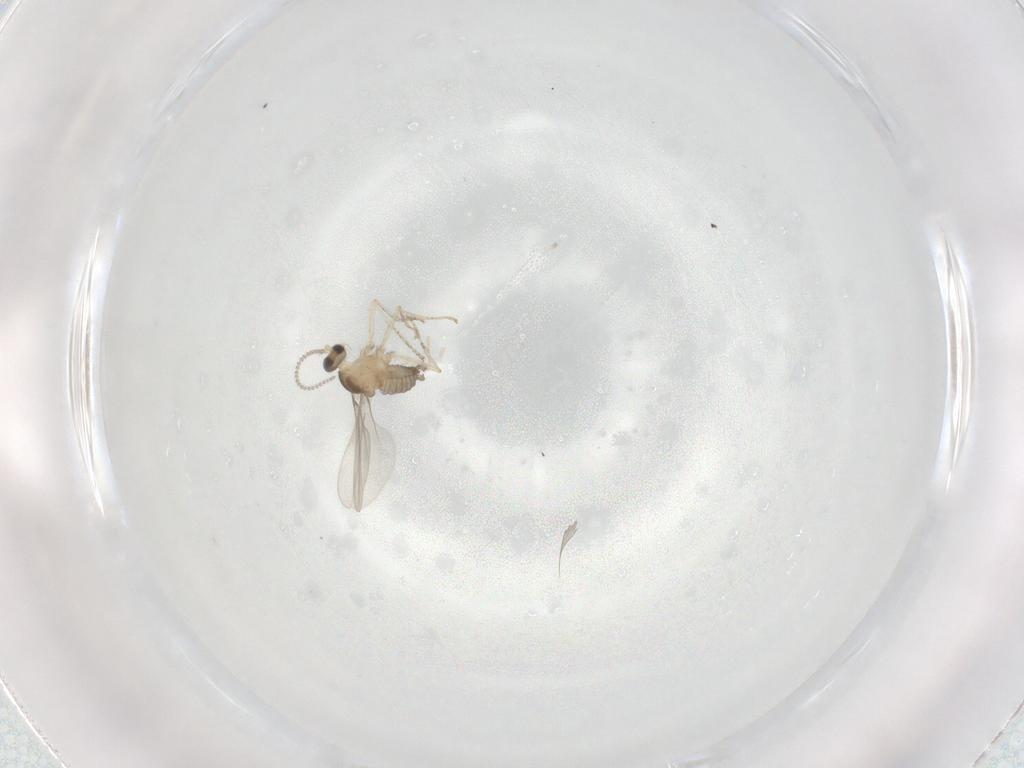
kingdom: Animalia
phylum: Arthropoda
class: Insecta
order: Diptera
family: Cecidomyiidae
